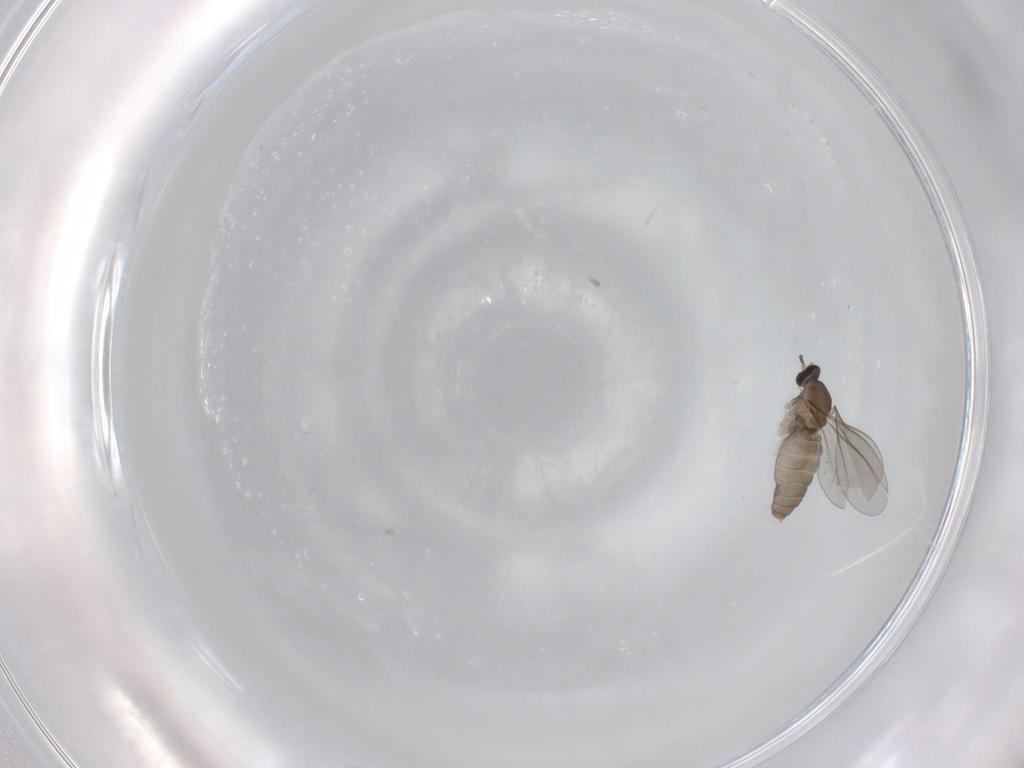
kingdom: Animalia
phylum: Arthropoda
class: Insecta
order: Diptera
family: Cecidomyiidae
